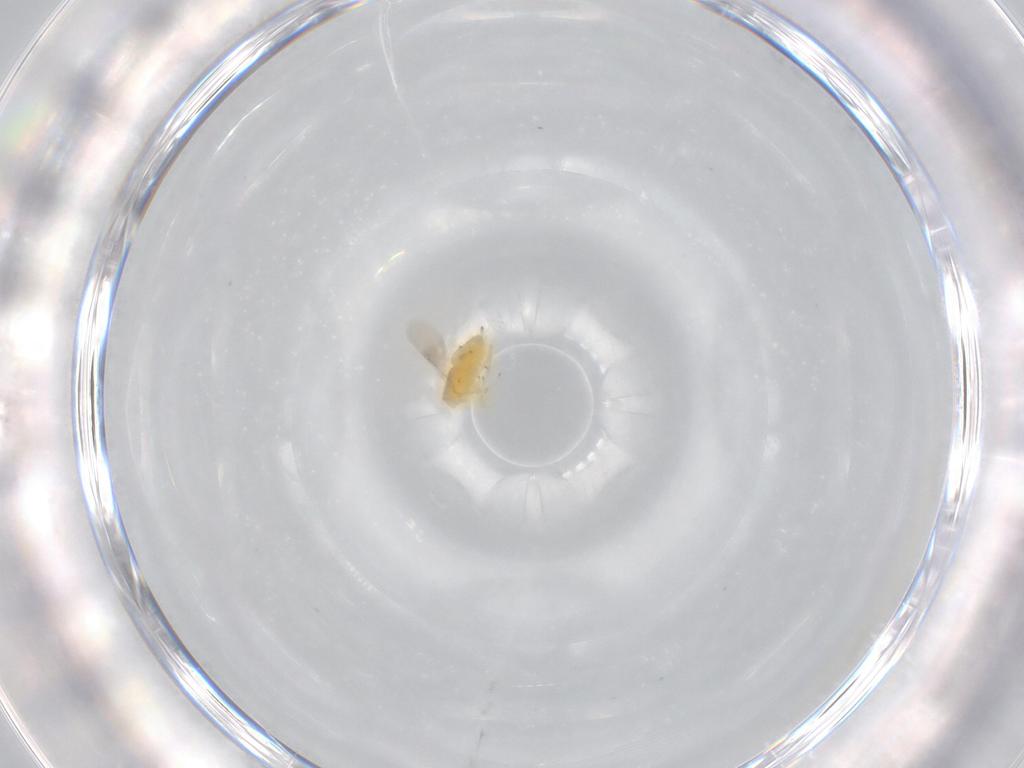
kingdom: Animalia
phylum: Arthropoda
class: Insecta
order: Hymenoptera
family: Encyrtidae
